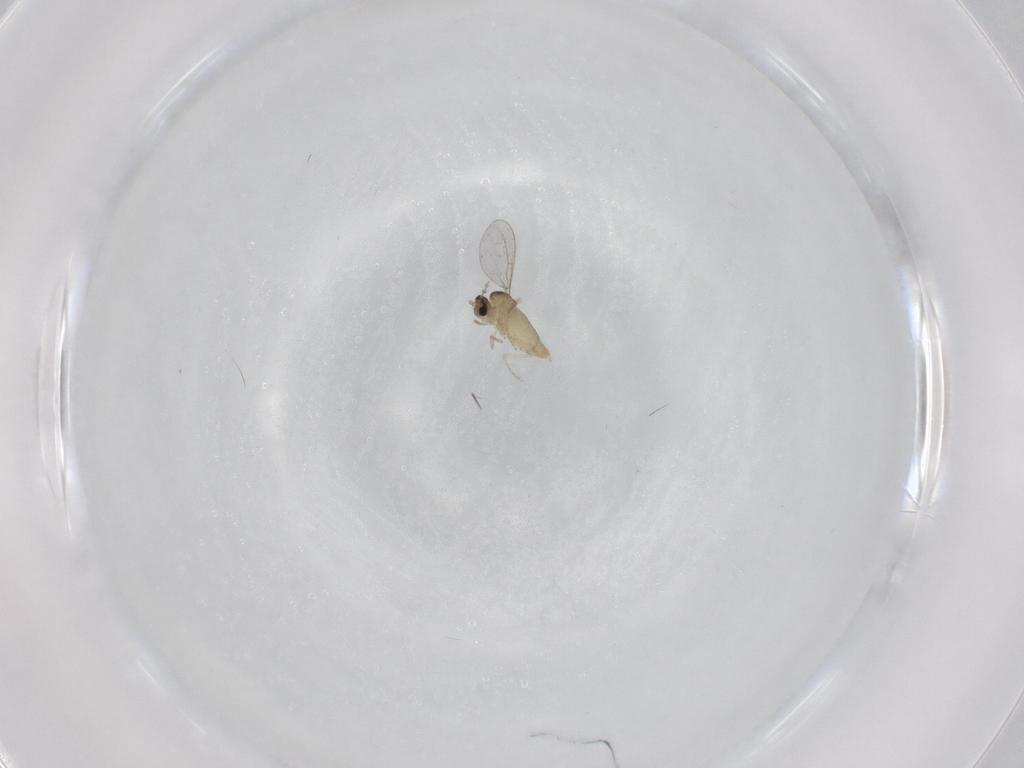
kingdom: Animalia
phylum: Arthropoda
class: Insecta
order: Diptera
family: Cecidomyiidae
